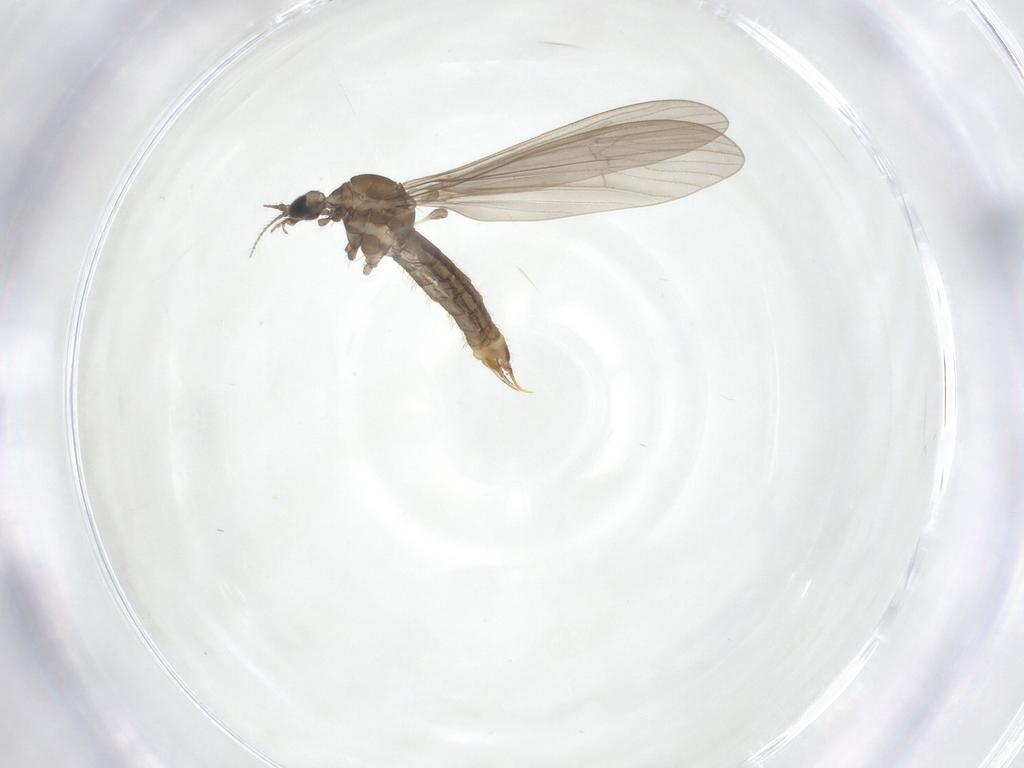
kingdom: Animalia
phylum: Arthropoda
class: Insecta
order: Diptera
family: Limoniidae
